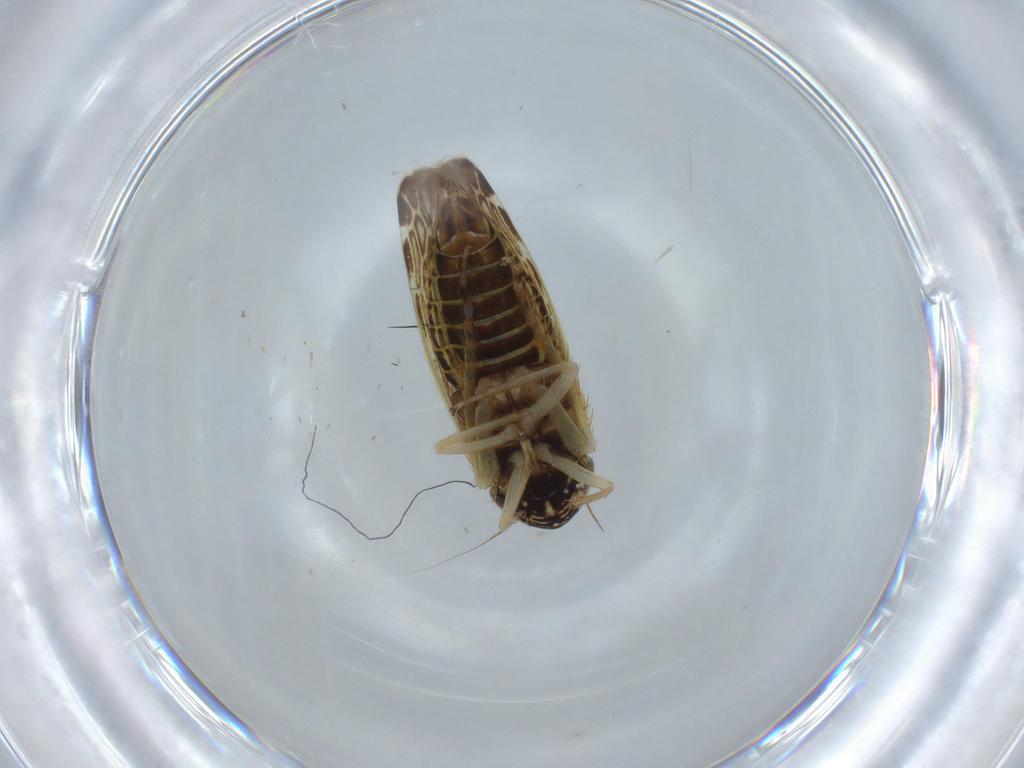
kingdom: Animalia
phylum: Arthropoda
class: Insecta
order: Hemiptera
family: Cicadellidae
